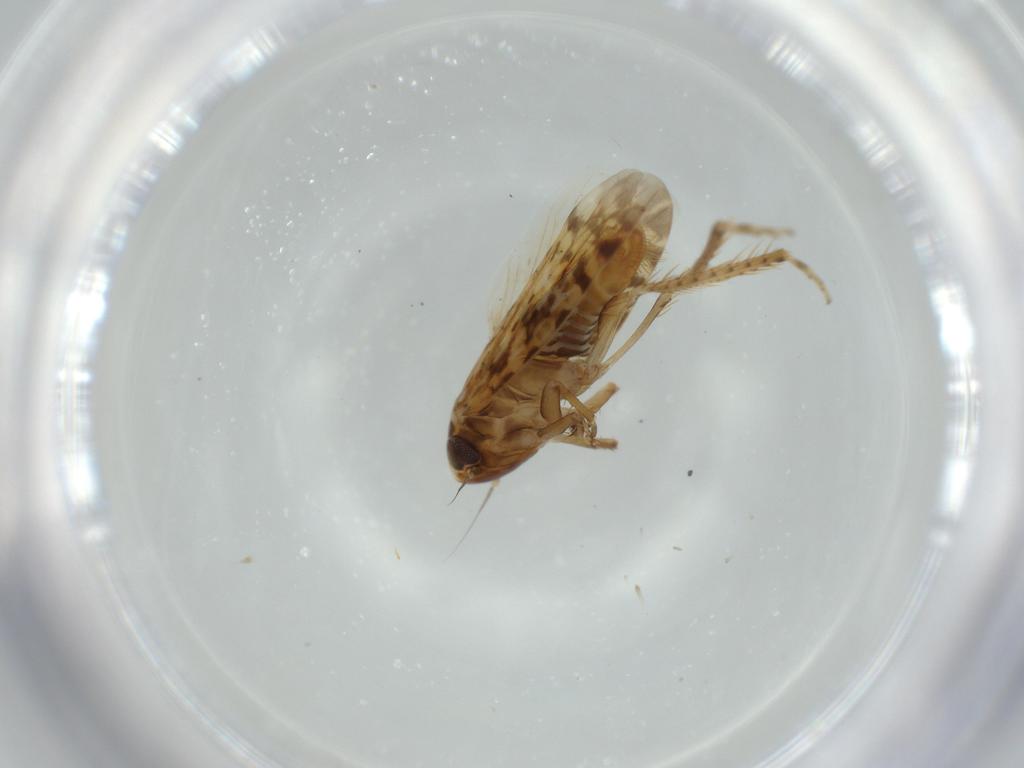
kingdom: Animalia
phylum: Arthropoda
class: Insecta
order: Hemiptera
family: Cicadellidae
